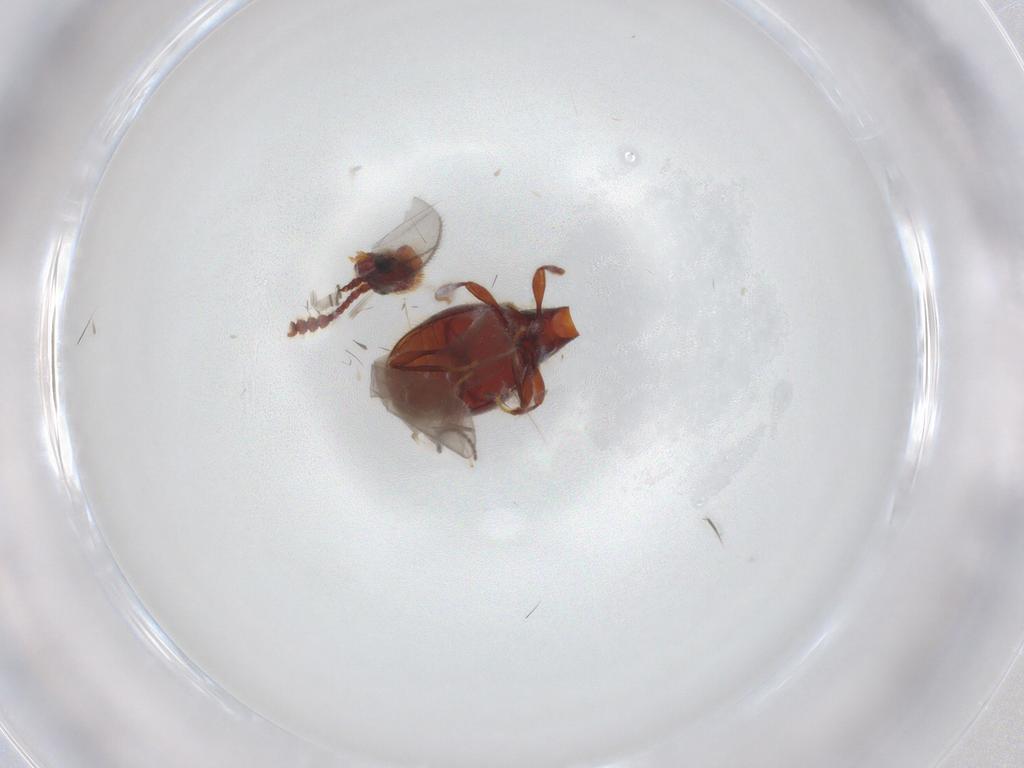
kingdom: Animalia
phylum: Arthropoda
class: Insecta
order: Coleoptera
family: Staphylinidae
